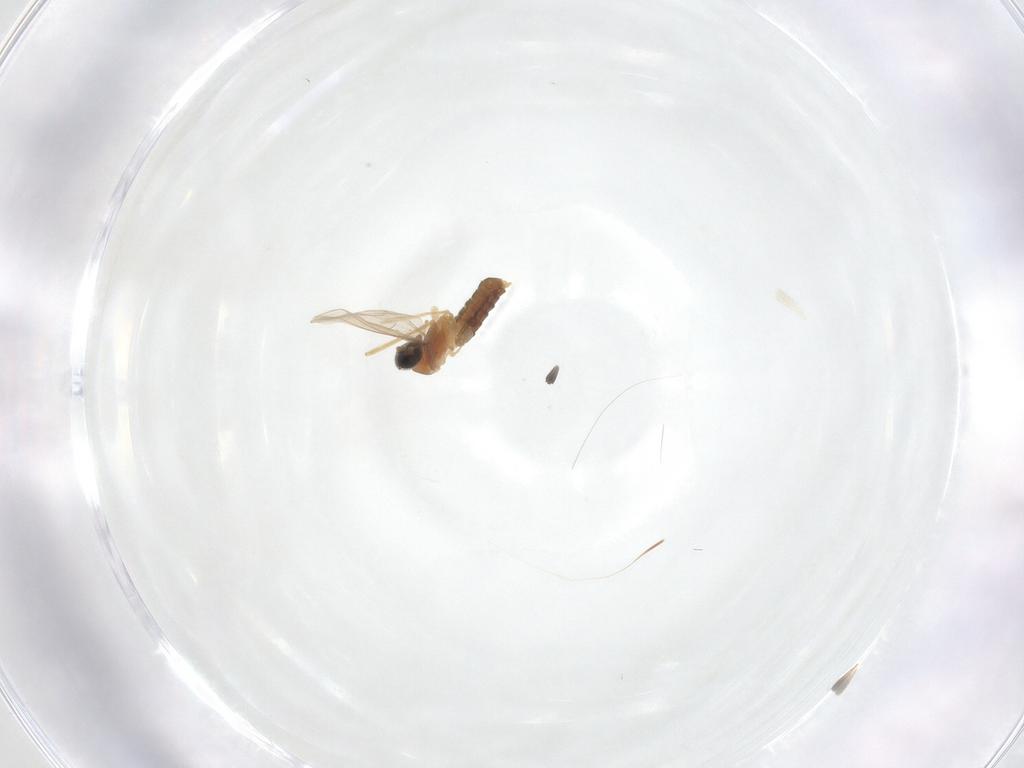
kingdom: Animalia
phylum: Arthropoda
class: Insecta
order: Diptera
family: Cecidomyiidae
